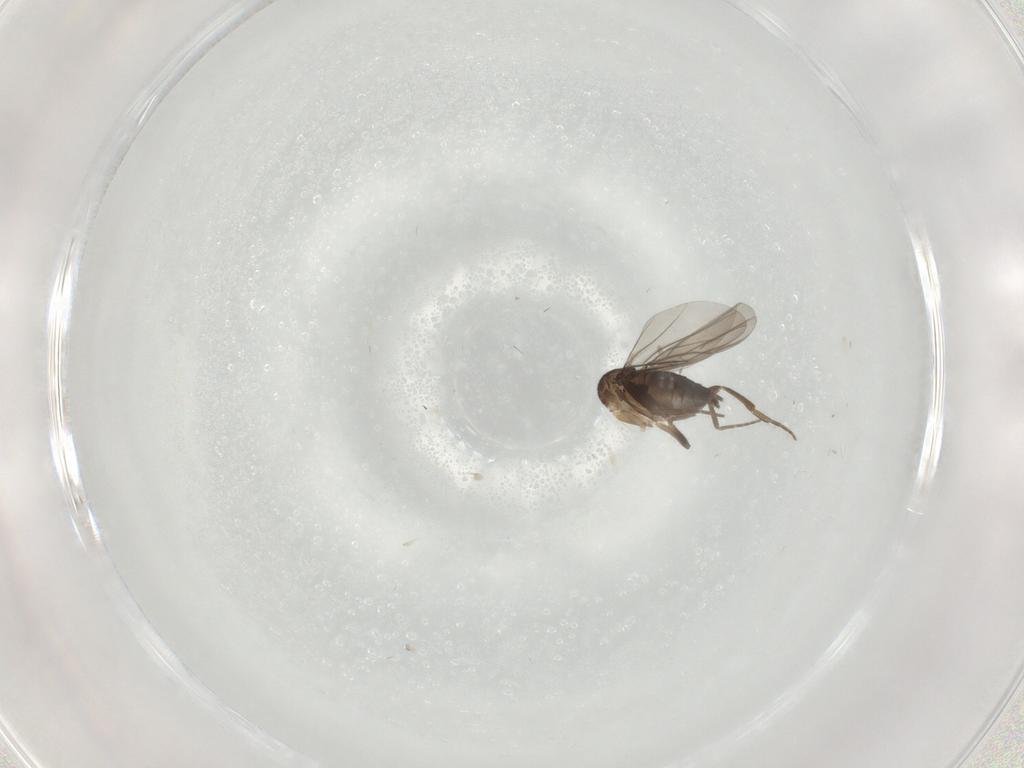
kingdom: Animalia
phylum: Arthropoda
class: Insecta
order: Diptera
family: Phoridae
